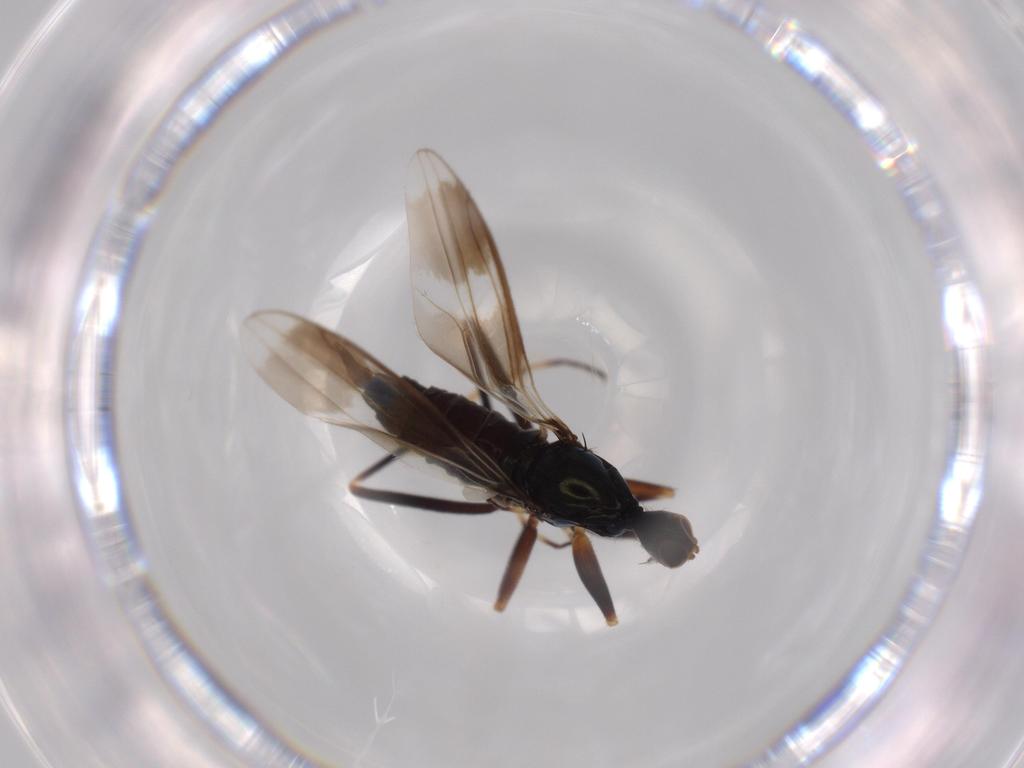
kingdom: Animalia
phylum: Arthropoda
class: Insecta
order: Diptera
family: Hybotidae
